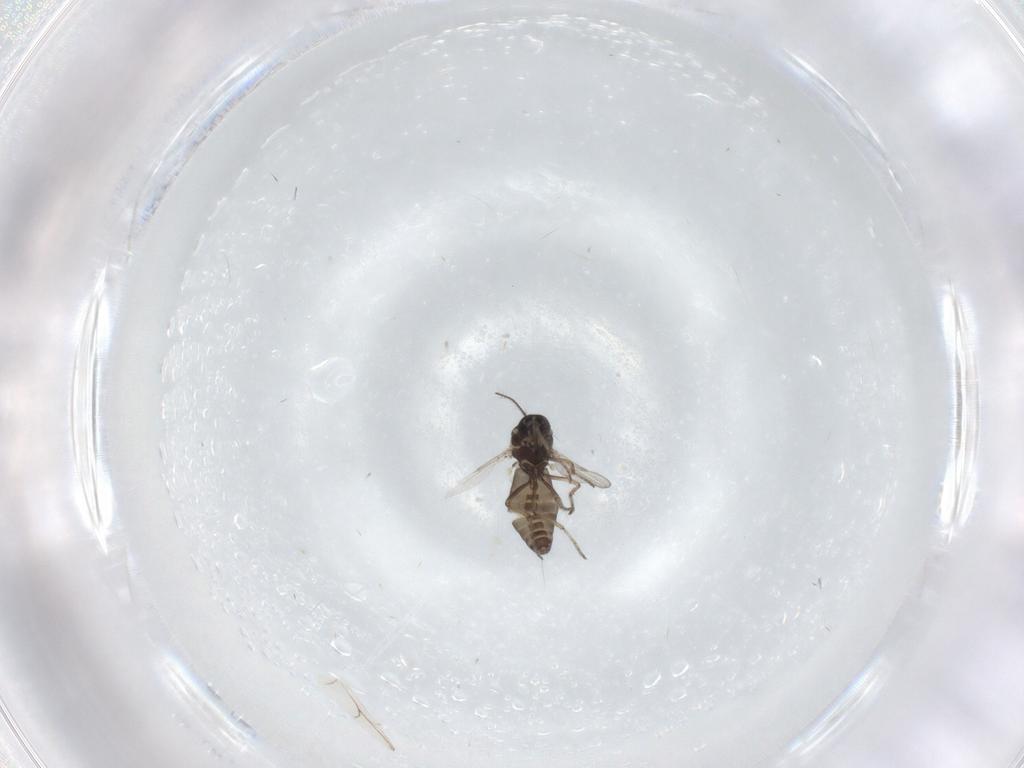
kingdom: Animalia
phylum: Arthropoda
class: Insecta
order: Diptera
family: Ceratopogonidae
